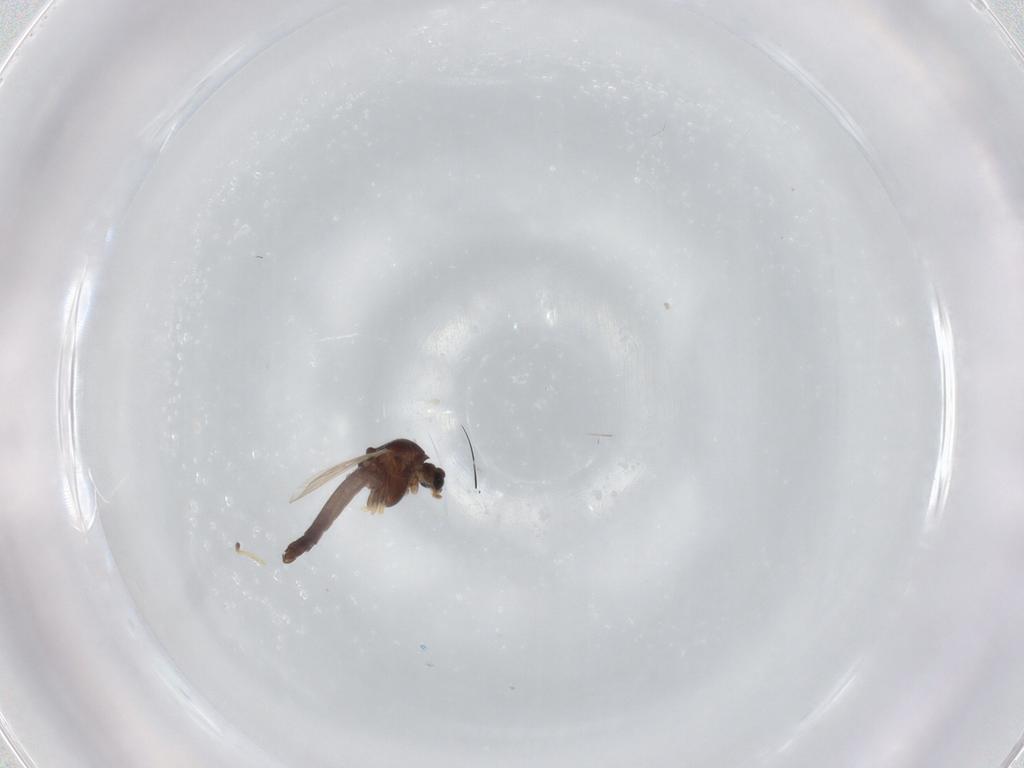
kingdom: Animalia
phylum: Arthropoda
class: Insecta
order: Diptera
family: Chironomidae
